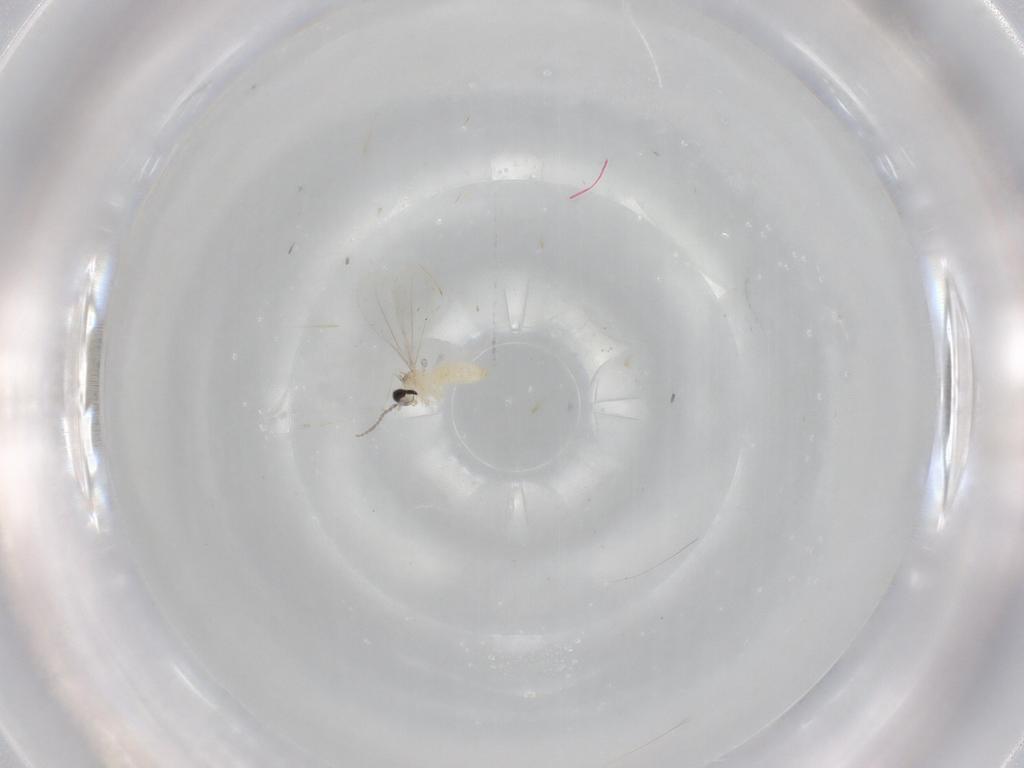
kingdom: Animalia
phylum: Arthropoda
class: Insecta
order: Diptera
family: Cecidomyiidae
